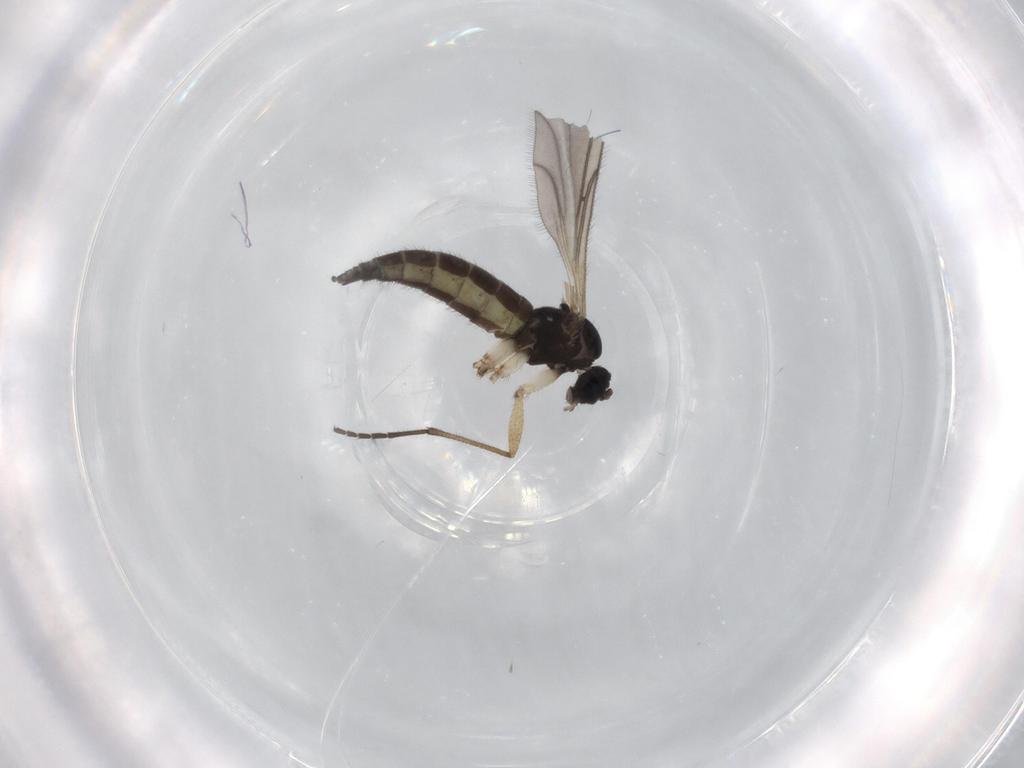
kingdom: Animalia
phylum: Arthropoda
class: Insecta
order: Diptera
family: Sciaridae
